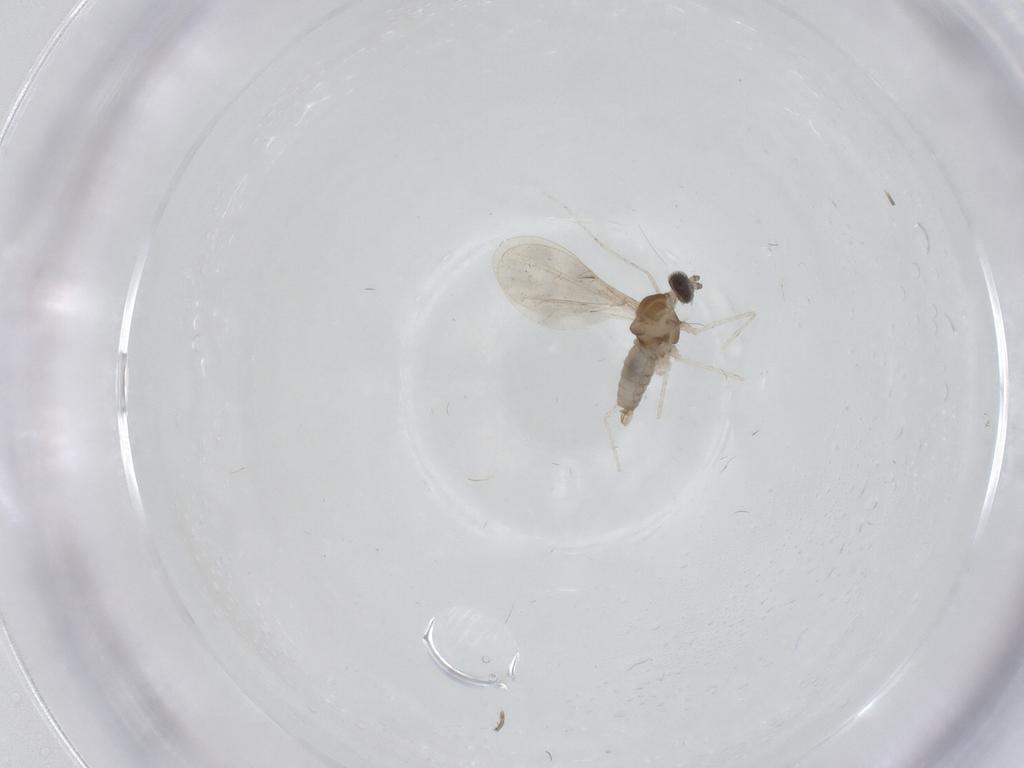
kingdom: Animalia
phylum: Arthropoda
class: Insecta
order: Diptera
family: Cecidomyiidae
